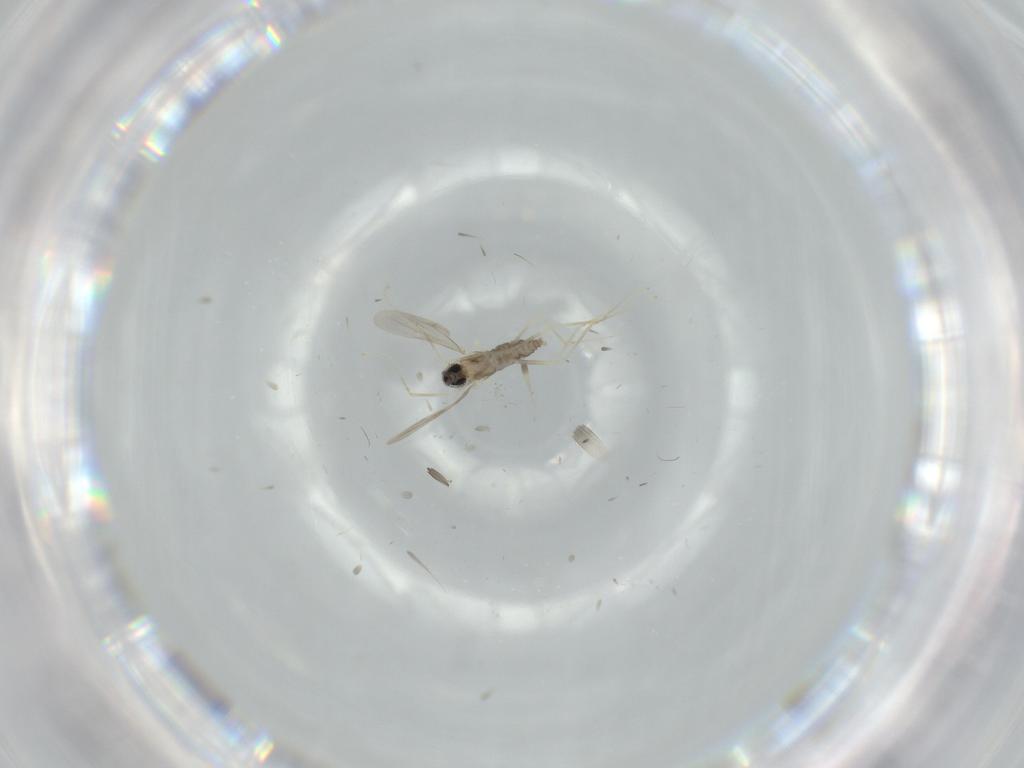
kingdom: Animalia
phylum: Arthropoda
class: Insecta
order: Diptera
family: Cecidomyiidae
